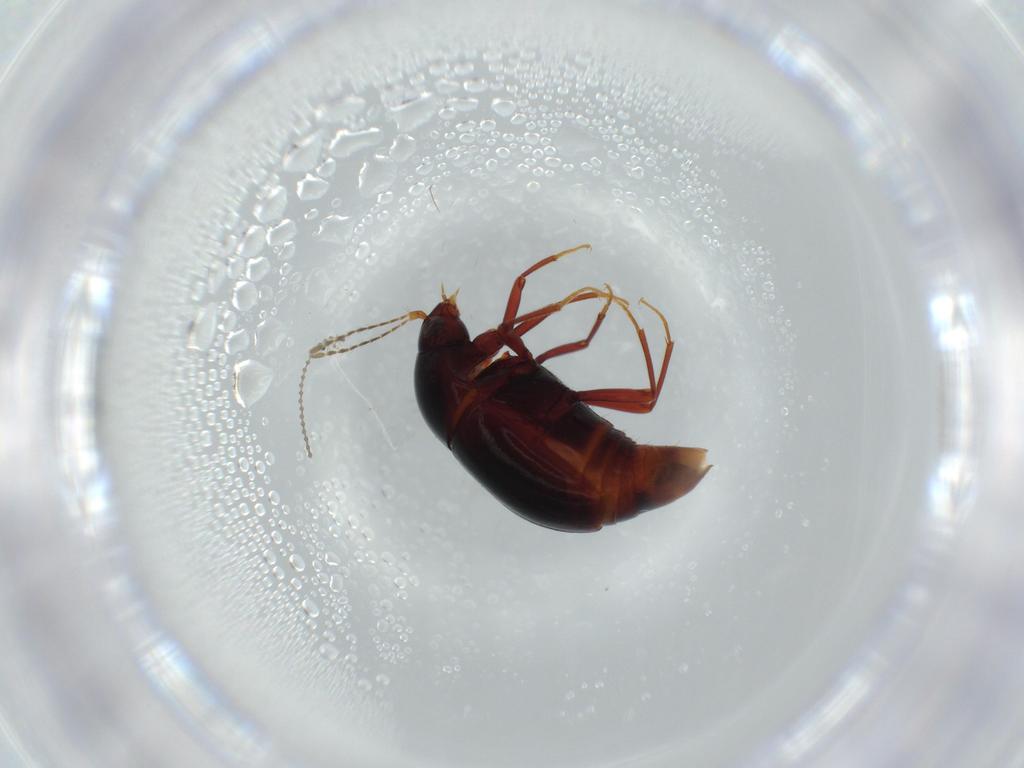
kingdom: Animalia
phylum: Arthropoda
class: Insecta
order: Coleoptera
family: Staphylinidae
